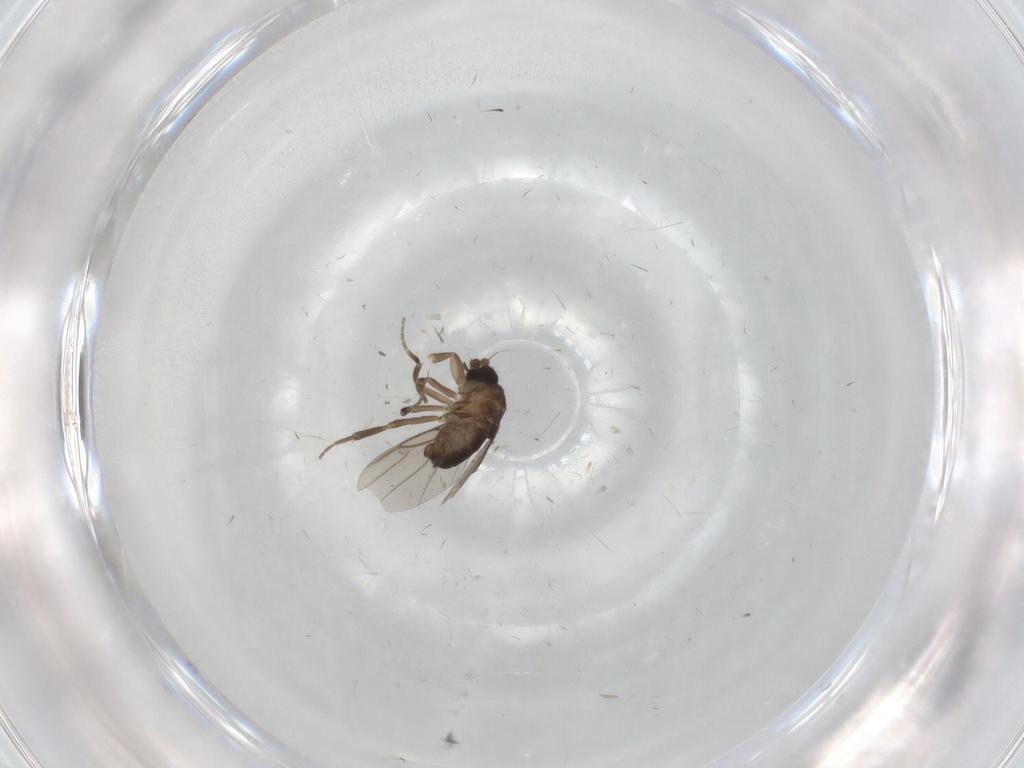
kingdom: Animalia
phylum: Arthropoda
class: Insecta
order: Diptera
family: Phoridae
